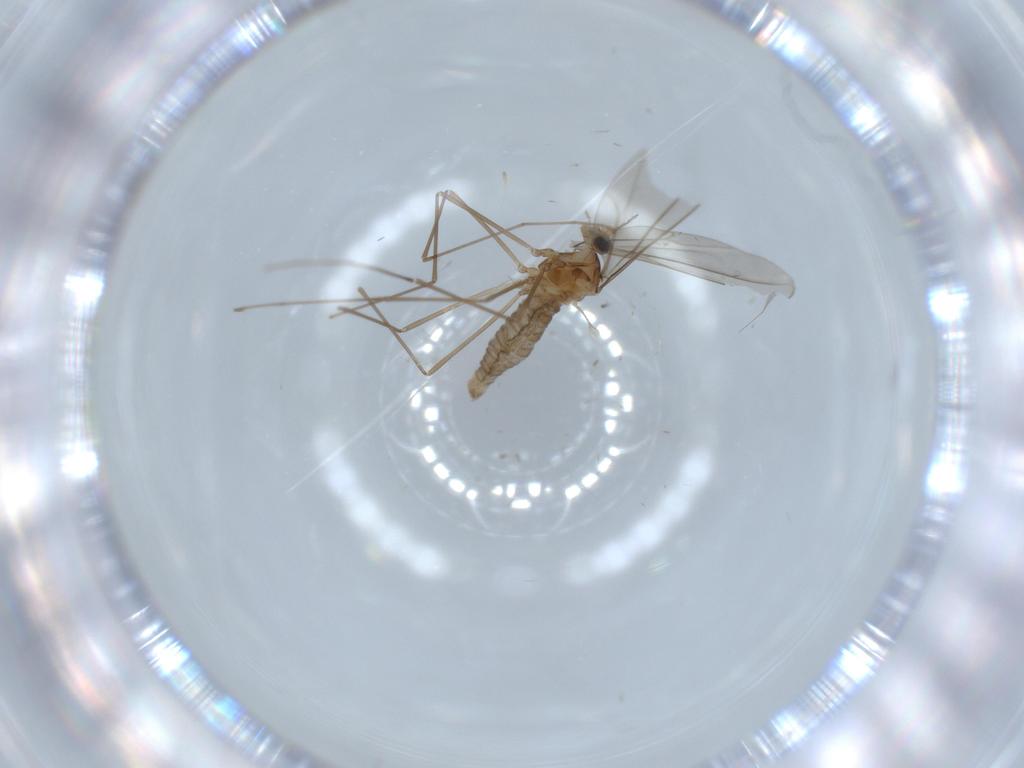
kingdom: Animalia
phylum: Arthropoda
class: Insecta
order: Diptera
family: Cecidomyiidae
